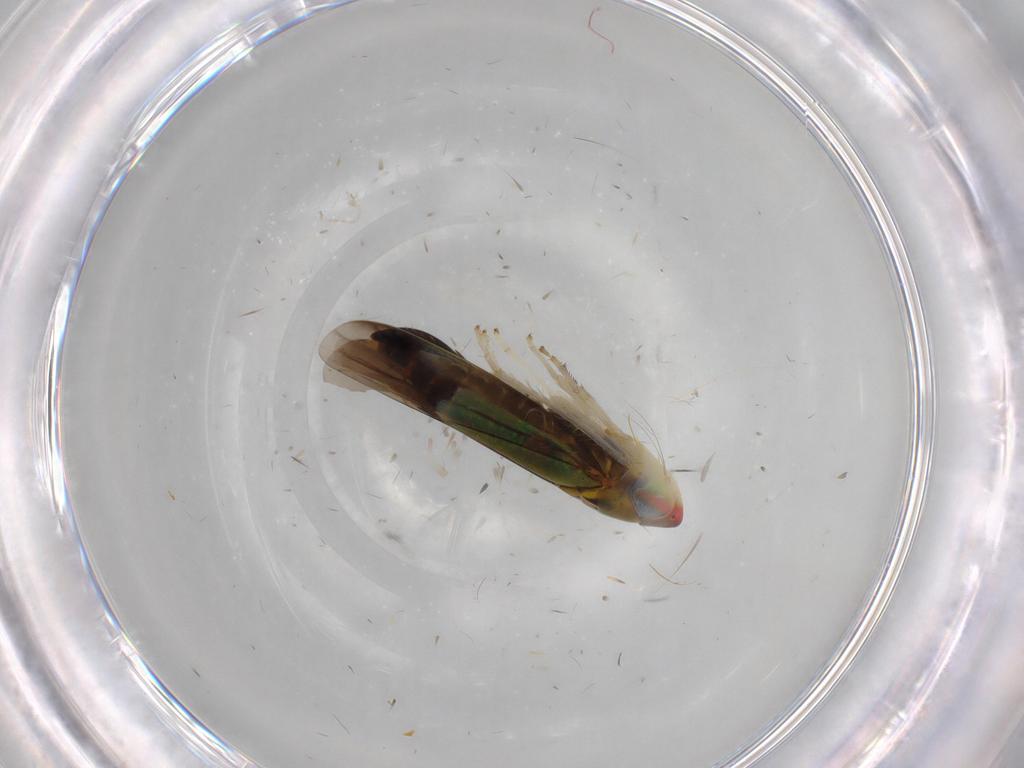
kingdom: Animalia
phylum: Arthropoda
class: Insecta
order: Hemiptera
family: Cicadellidae
